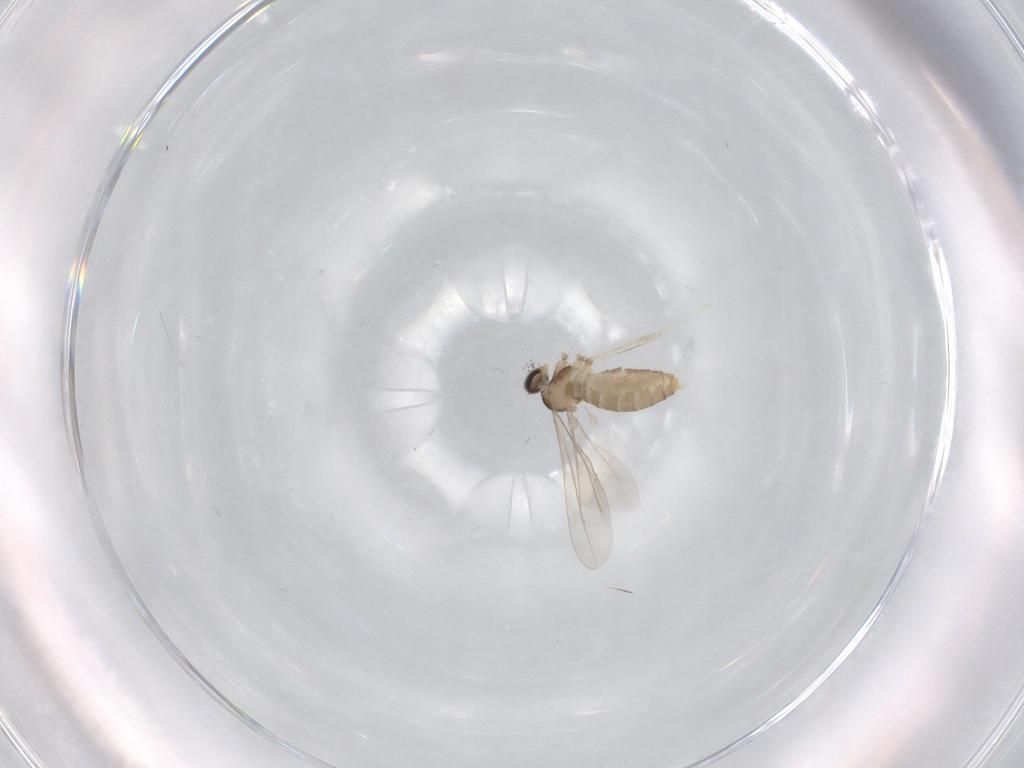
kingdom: Animalia
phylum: Arthropoda
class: Insecta
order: Diptera
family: Cecidomyiidae
